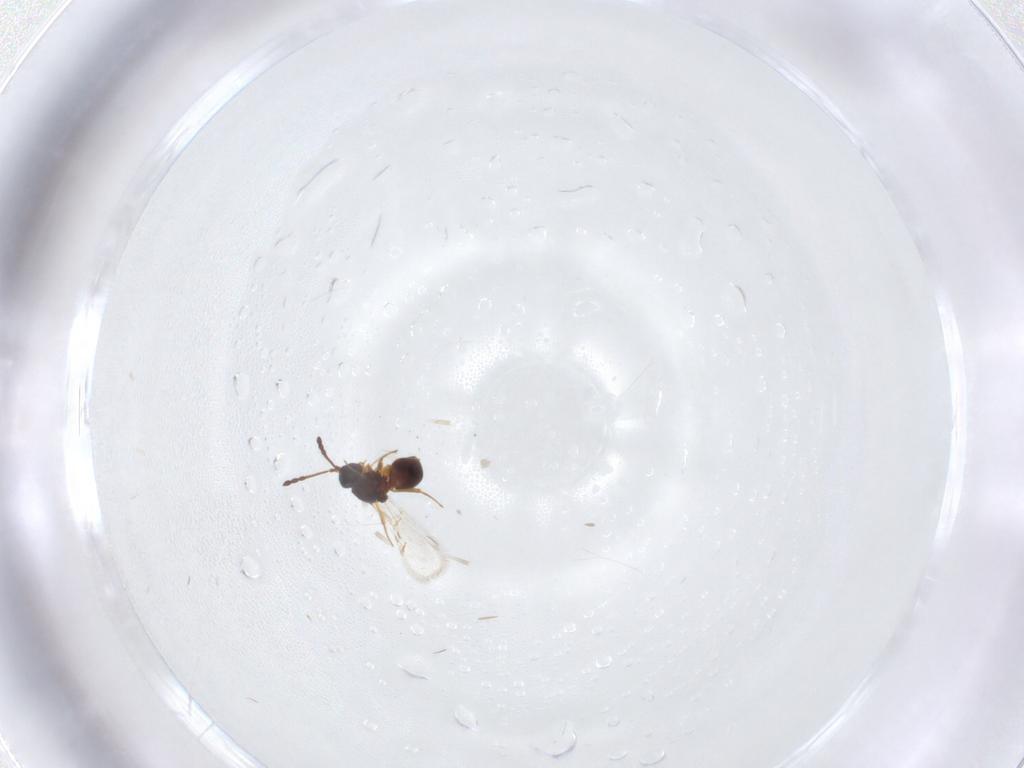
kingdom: Animalia
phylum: Arthropoda
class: Insecta
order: Hymenoptera
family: Figitidae
